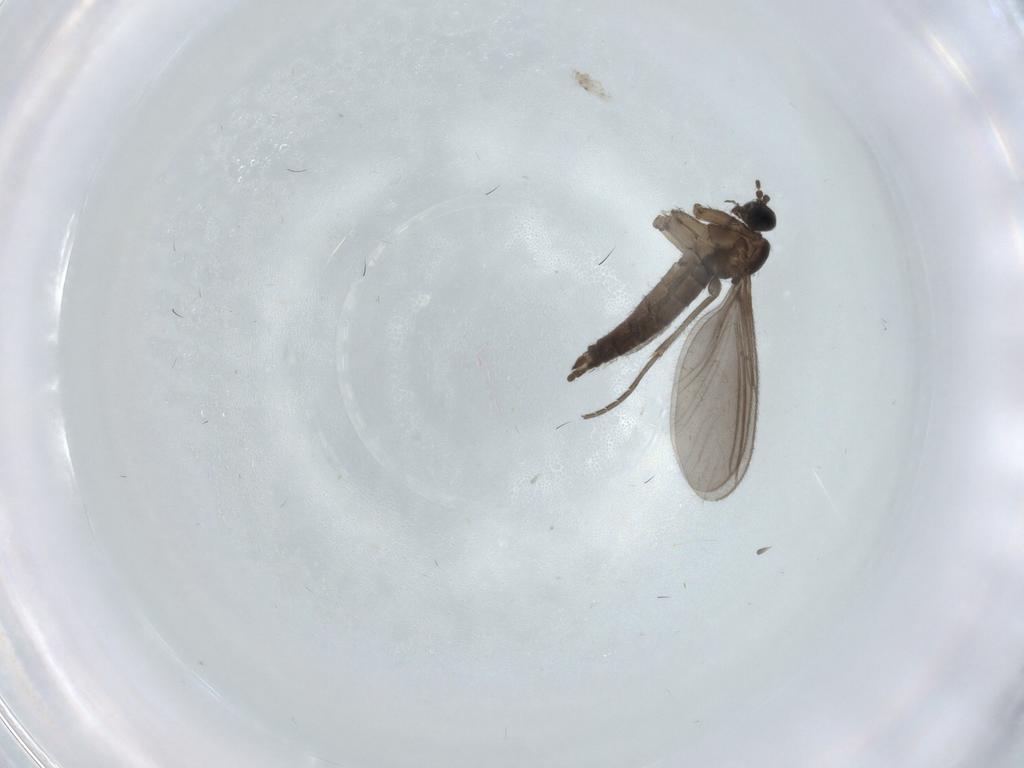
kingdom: Animalia
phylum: Arthropoda
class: Insecta
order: Diptera
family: Sciaridae
